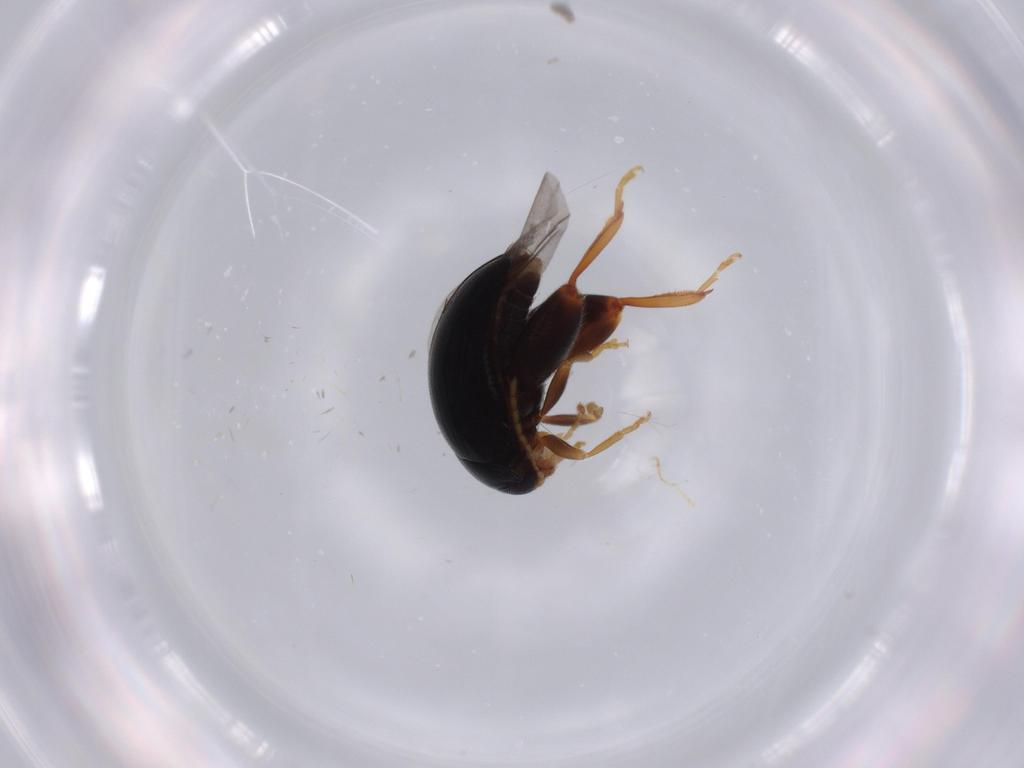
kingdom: Animalia
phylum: Arthropoda
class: Insecta
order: Coleoptera
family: Chrysomelidae
